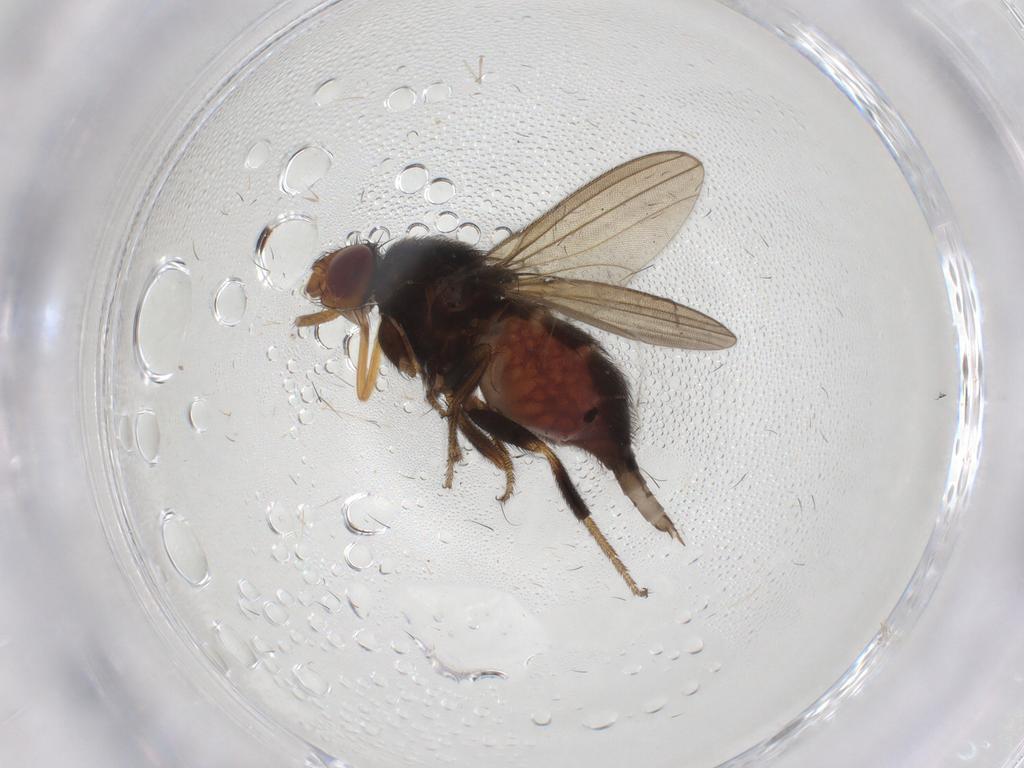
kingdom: Animalia
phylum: Arthropoda
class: Insecta
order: Diptera
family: Milichiidae
